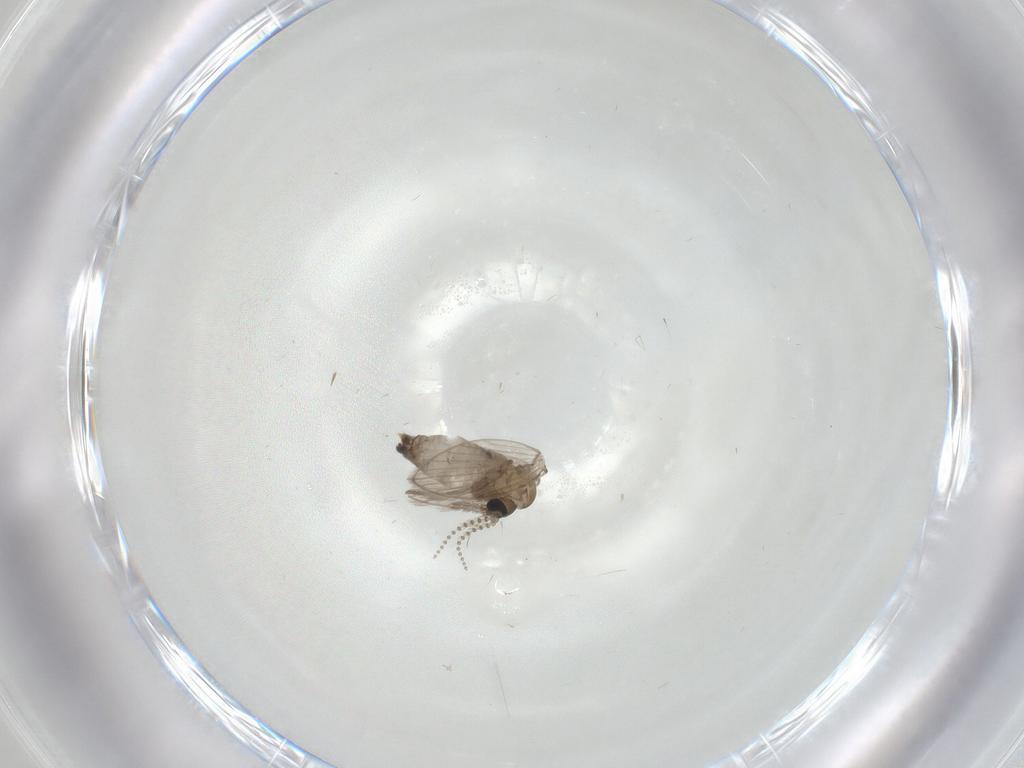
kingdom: Animalia
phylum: Arthropoda
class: Insecta
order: Diptera
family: Psychodidae
